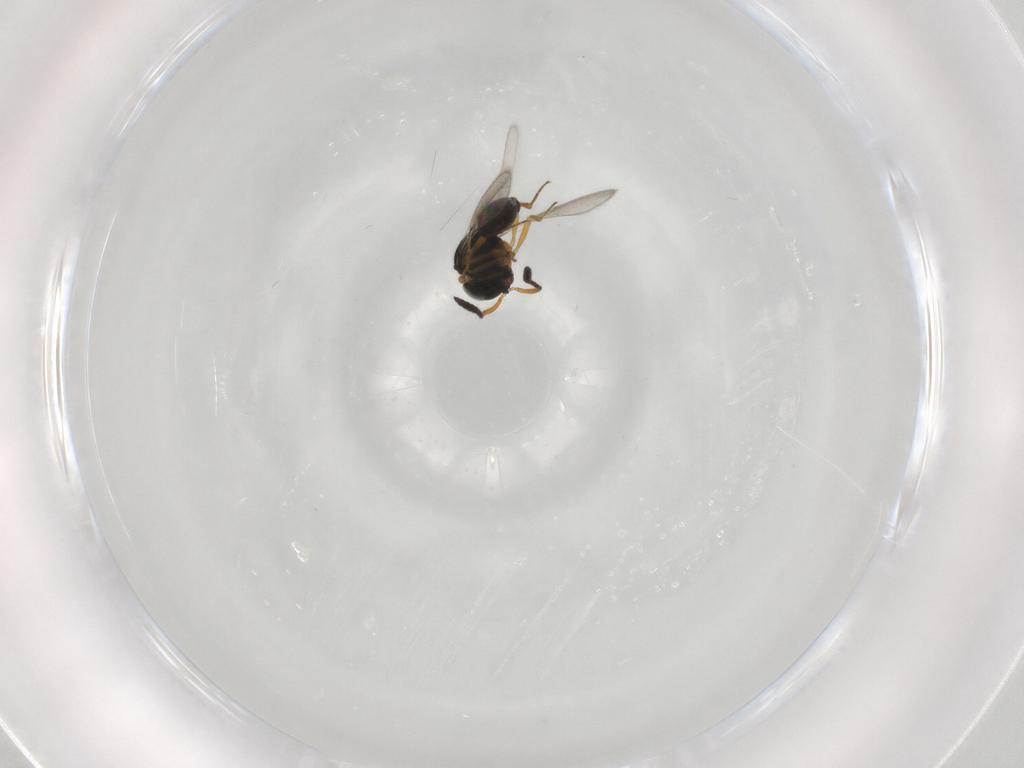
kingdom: Animalia
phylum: Arthropoda
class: Insecta
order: Hymenoptera
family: Scelionidae
